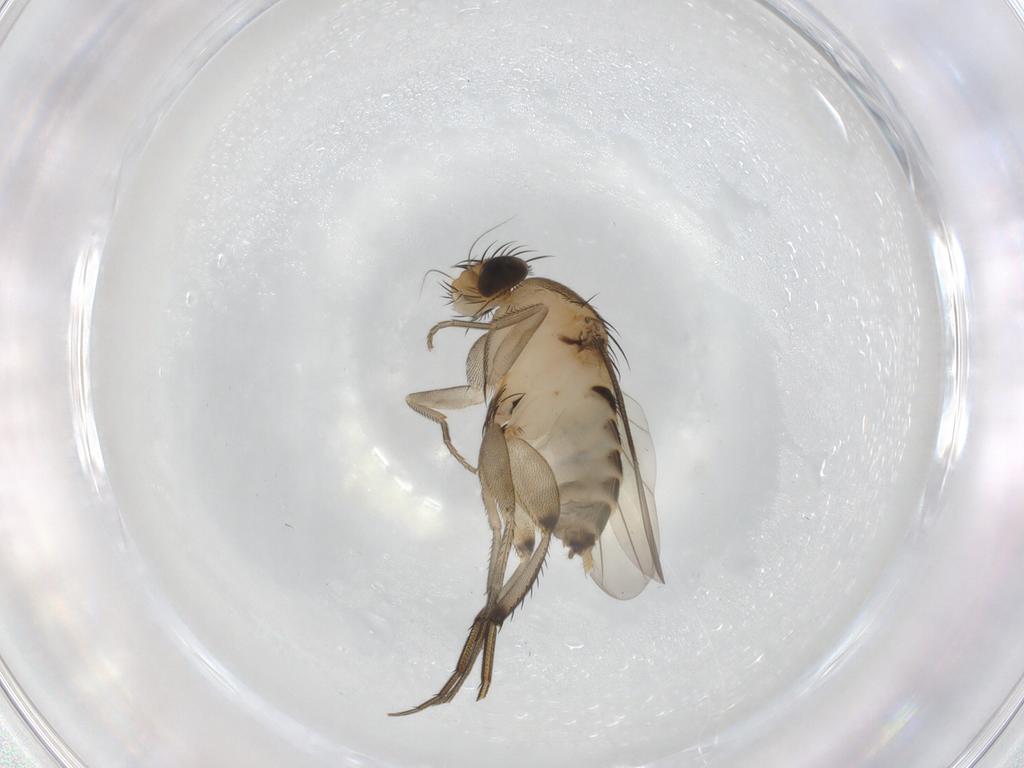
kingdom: Animalia
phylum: Arthropoda
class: Insecta
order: Diptera
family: Phoridae
